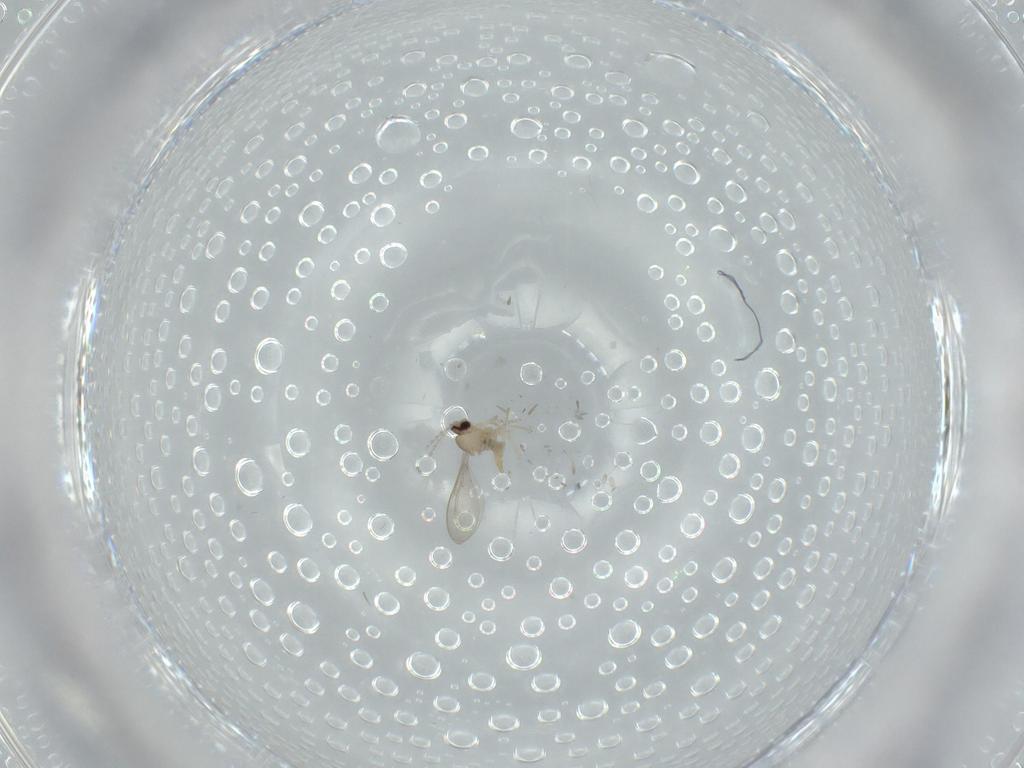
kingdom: Animalia
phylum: Arthropoda
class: Insecta
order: Diptera
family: Cecidomyiidae
